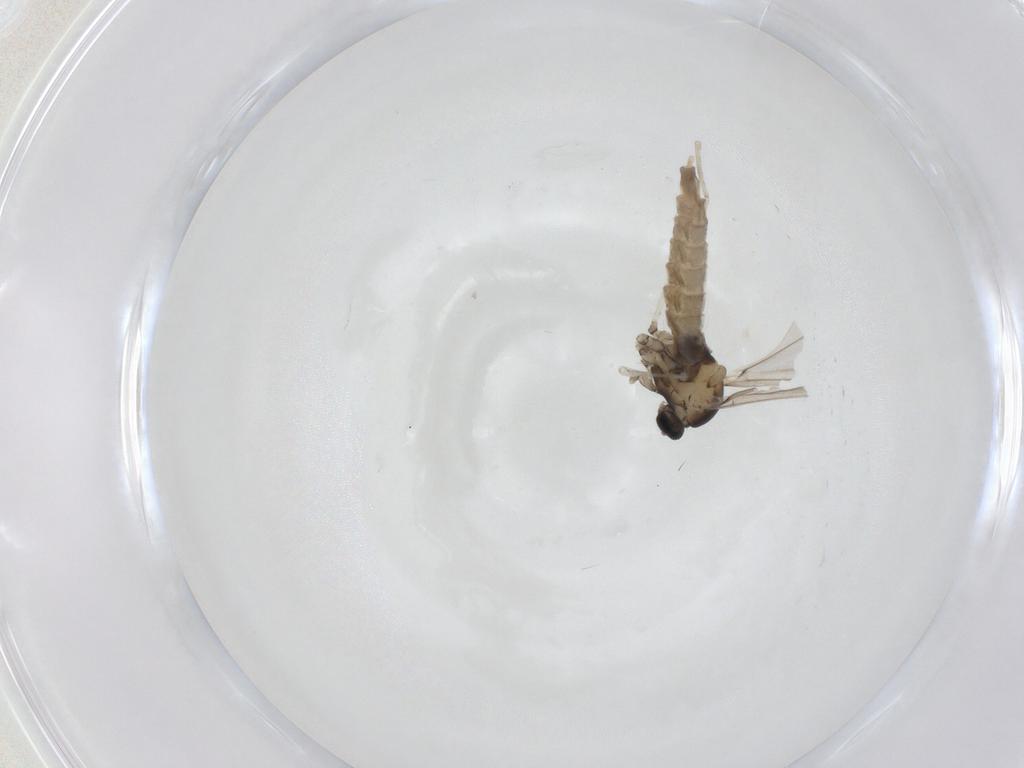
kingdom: Animalia
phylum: Arthropoda
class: Insecta
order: Diptera
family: Cecidomyiidae
